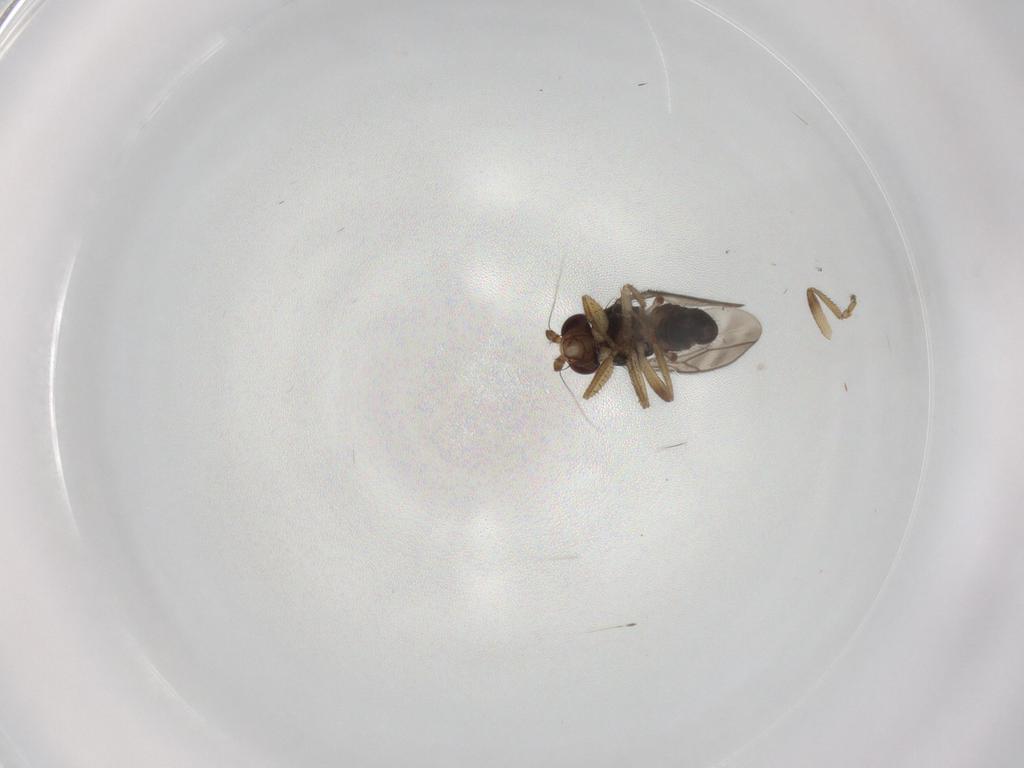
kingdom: Animalia
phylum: Arthropoda
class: Insecta
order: Diptera
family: Sphaeroceridae
